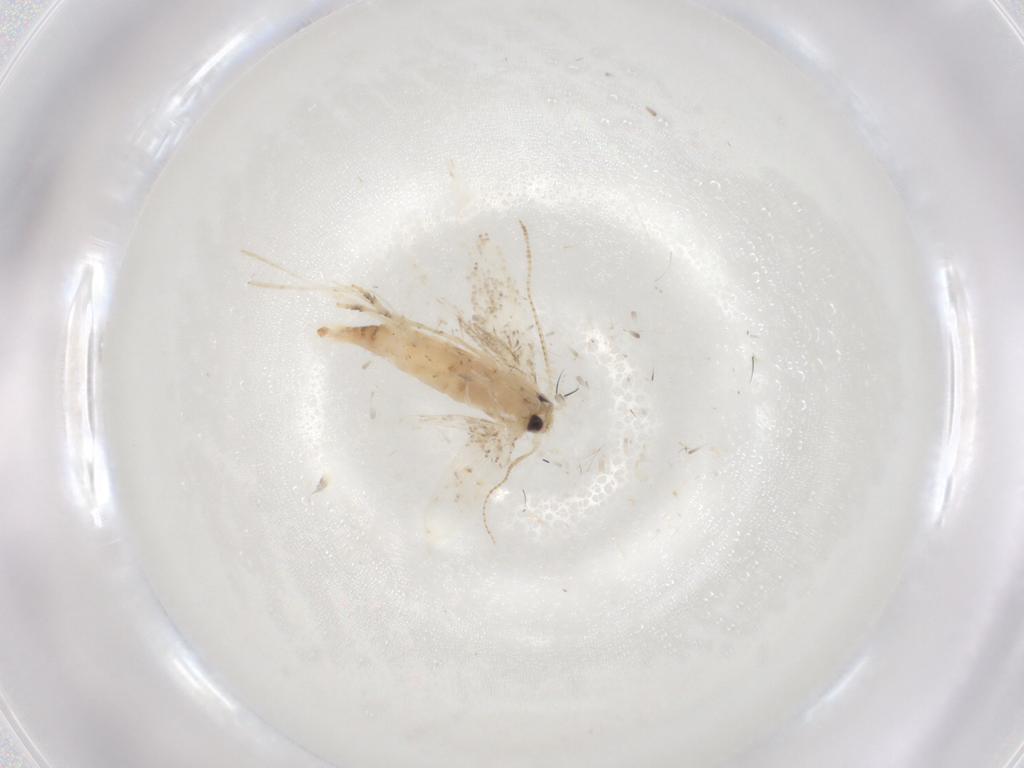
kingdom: Animalia
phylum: Arthropoda
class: Insecta
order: Lepidoptera
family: Gracillariidae
